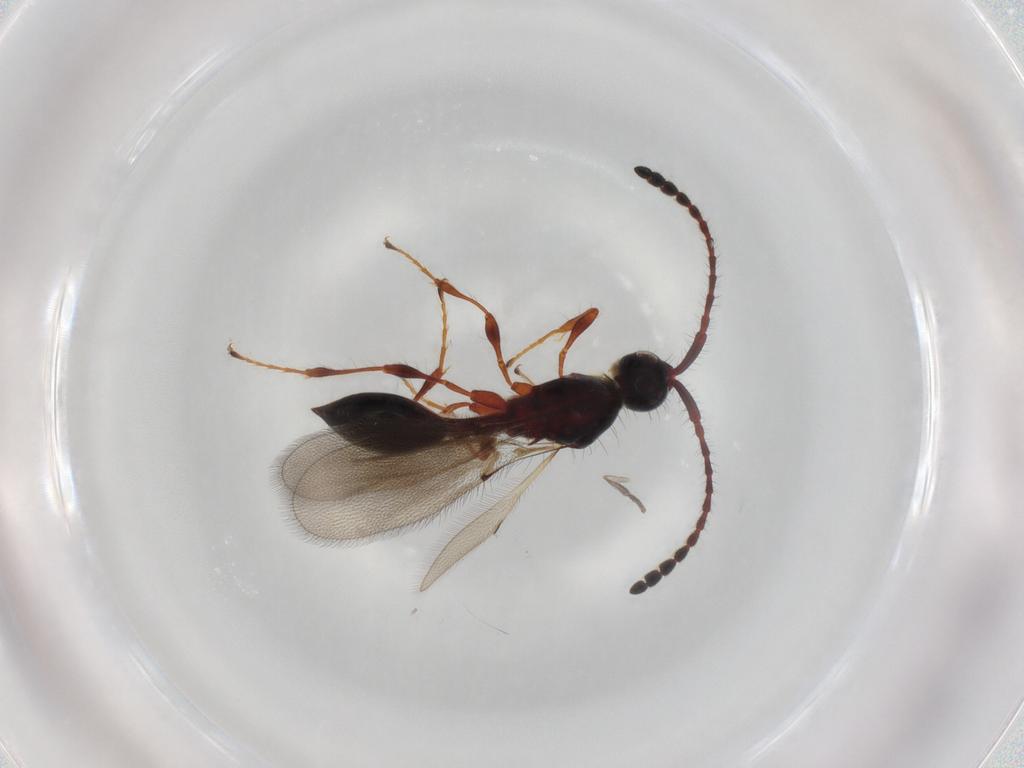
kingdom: Animalia
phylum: Arthropoda
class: Insecta
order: Hymenoptera
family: Diapriidae
